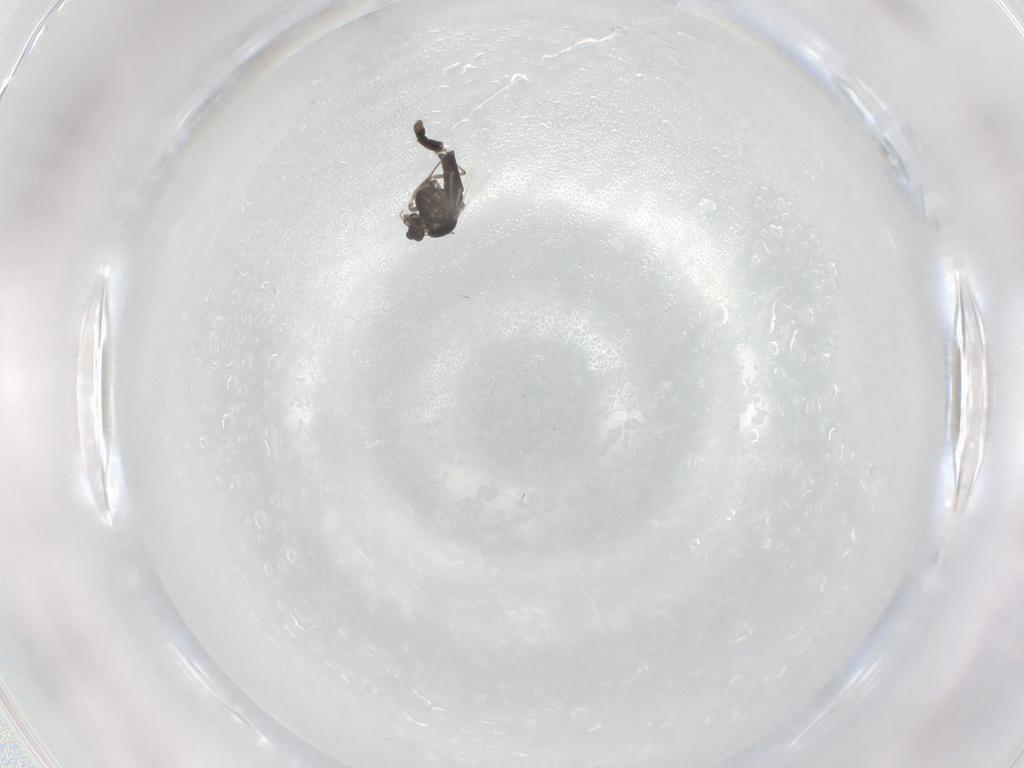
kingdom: Animalia
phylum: Arthropoda
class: Insecta
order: Diptera
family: Chironomidae
